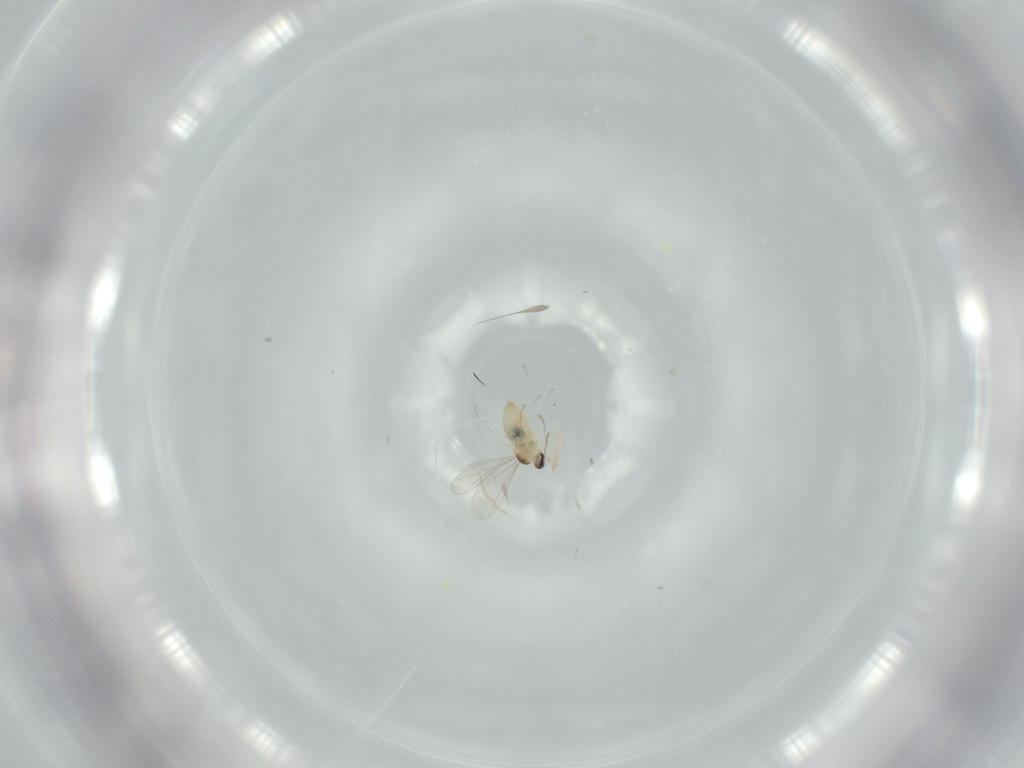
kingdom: Animalia
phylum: Arthropoda
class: Insecta
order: Diptera
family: Milichiidae
